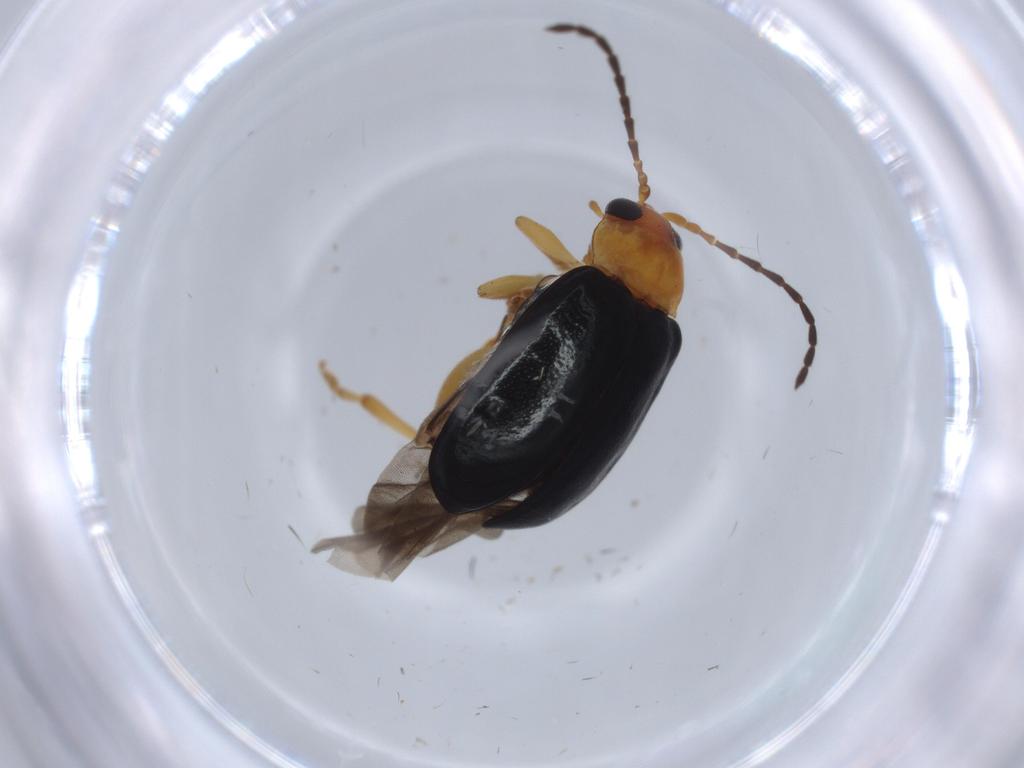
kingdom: Animalia
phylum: Arthropoda
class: Insecta
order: Coleoptera
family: Chrysomelidae
